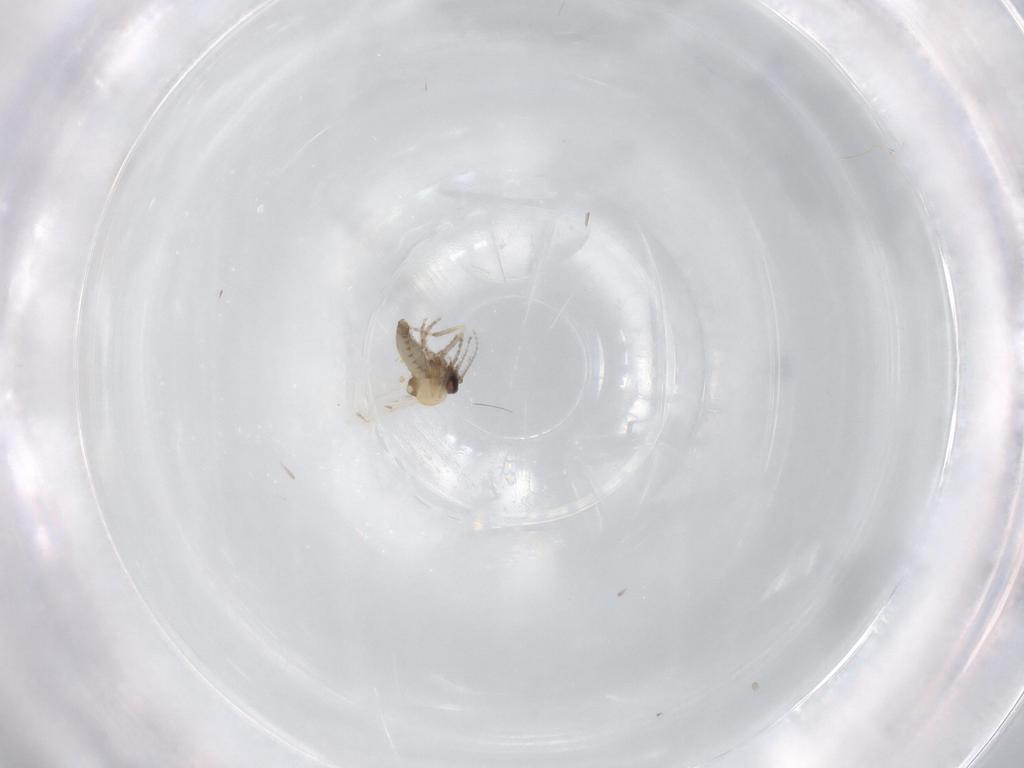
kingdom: Animalia
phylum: Arthropoda
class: Insecta
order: Diptera
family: Ceratopogonidae
